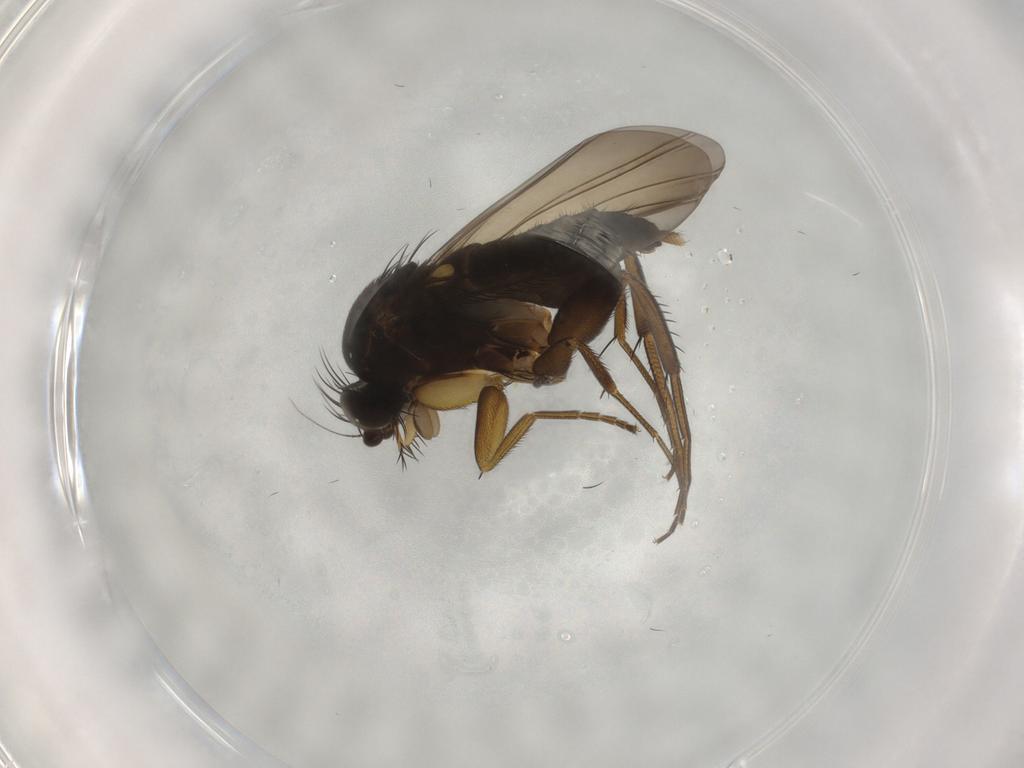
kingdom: Animalia
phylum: Arthropoda
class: Insecta
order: Diptera
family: Phoridae
